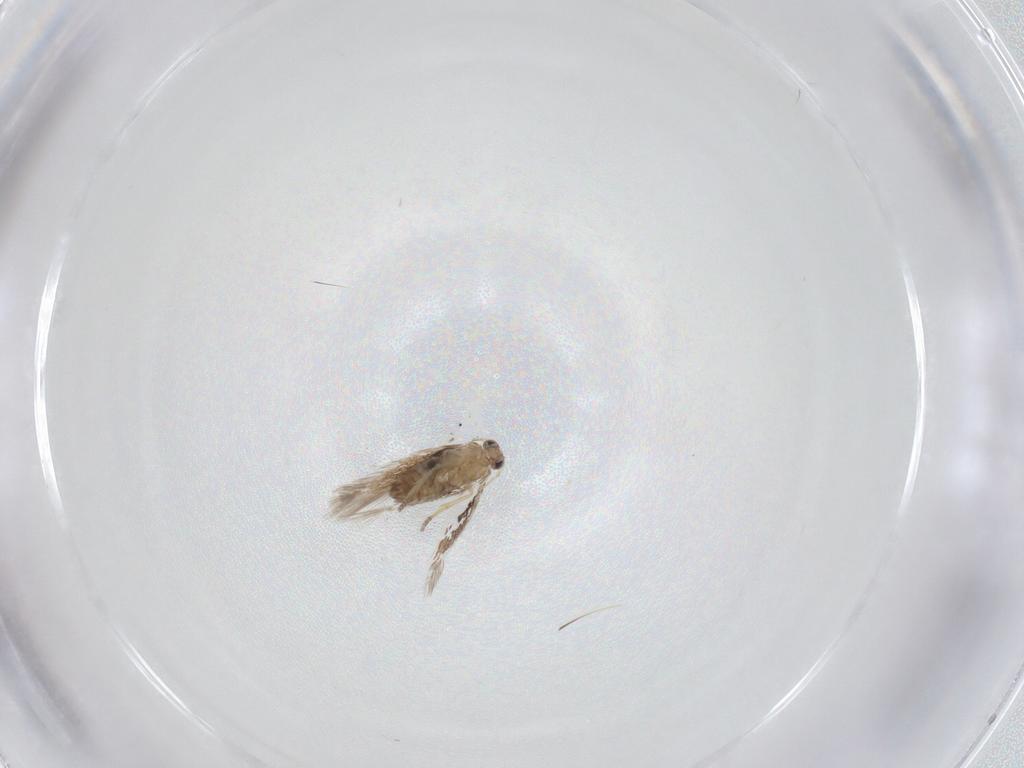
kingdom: Animalia
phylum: Arthropoda
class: Insecta
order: Lepidoptera
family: Nepticulidae
